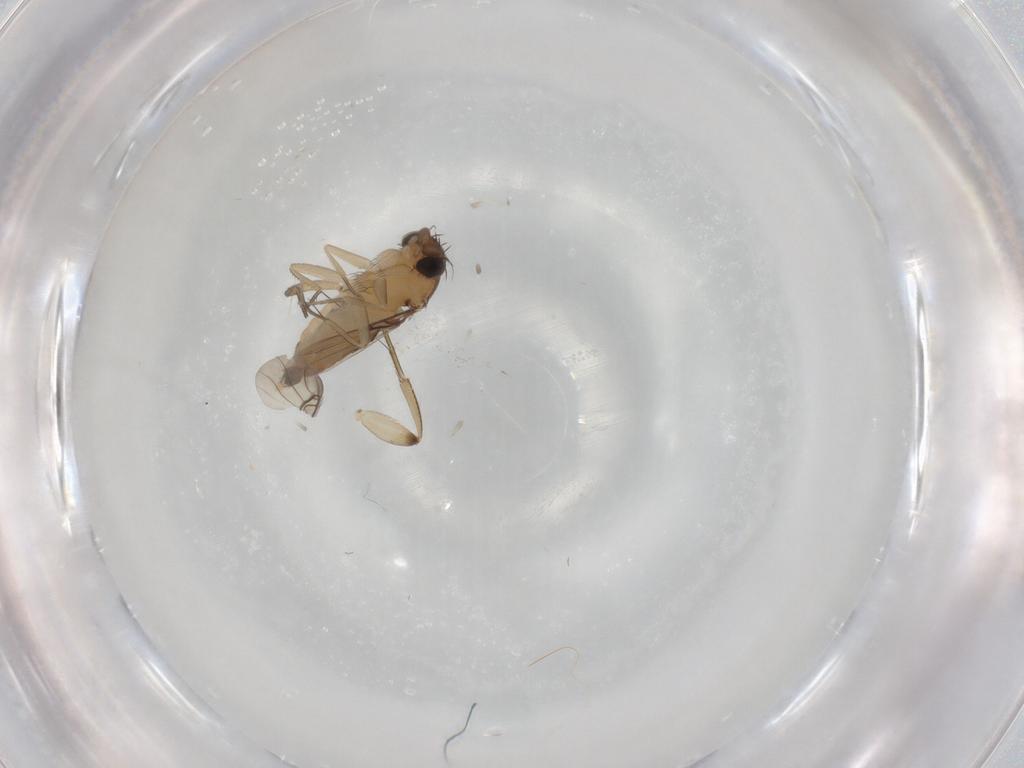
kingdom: Animalia
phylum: Arthropoda
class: Insecta
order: Diptera
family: Phoridae
